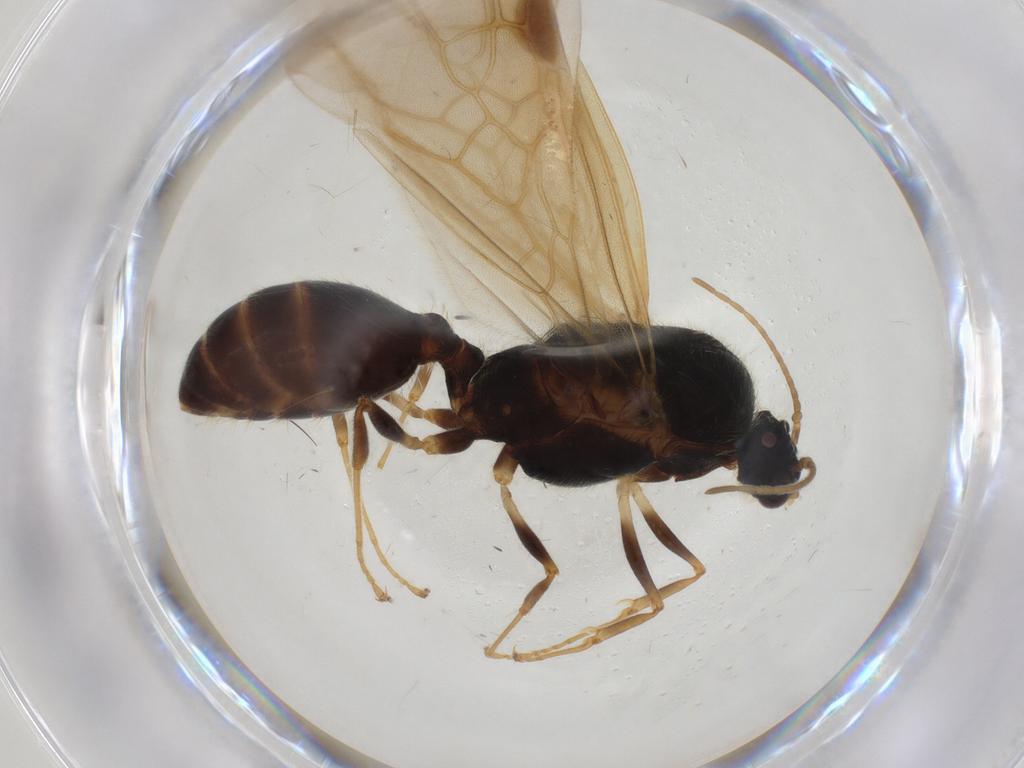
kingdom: Animalia
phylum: Arthropoda
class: Insecta
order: Hymenoptera
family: Formicidae
